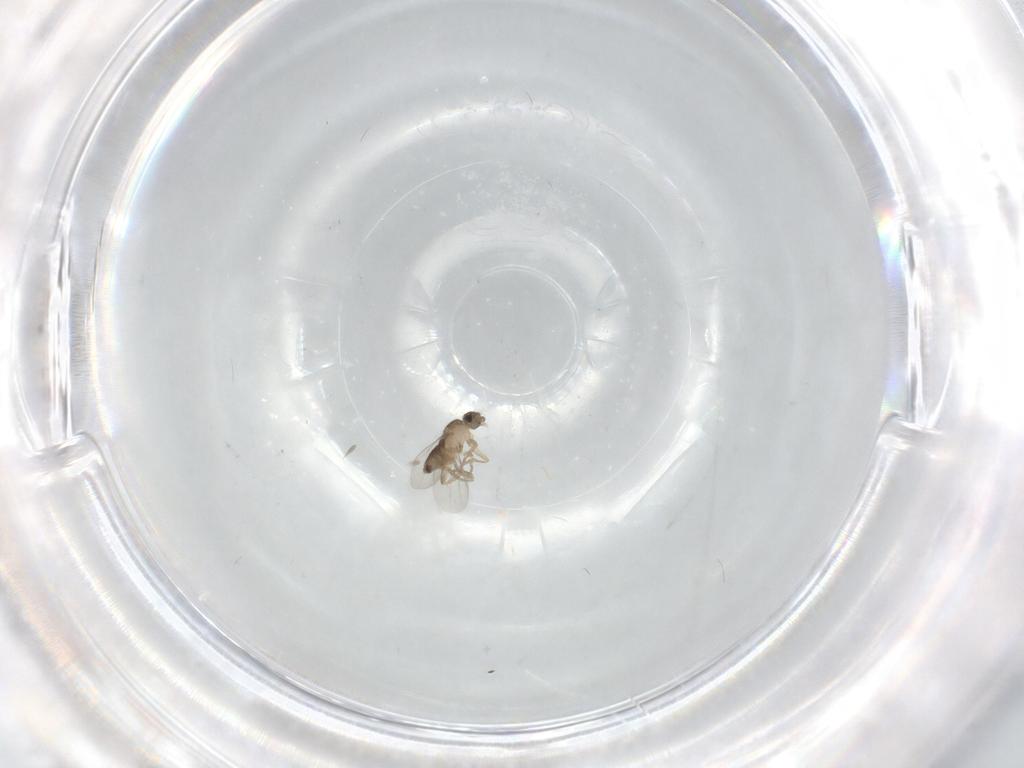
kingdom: Animalia
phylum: Arthropoda
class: Insecta
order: Diptera
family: Phoridae
